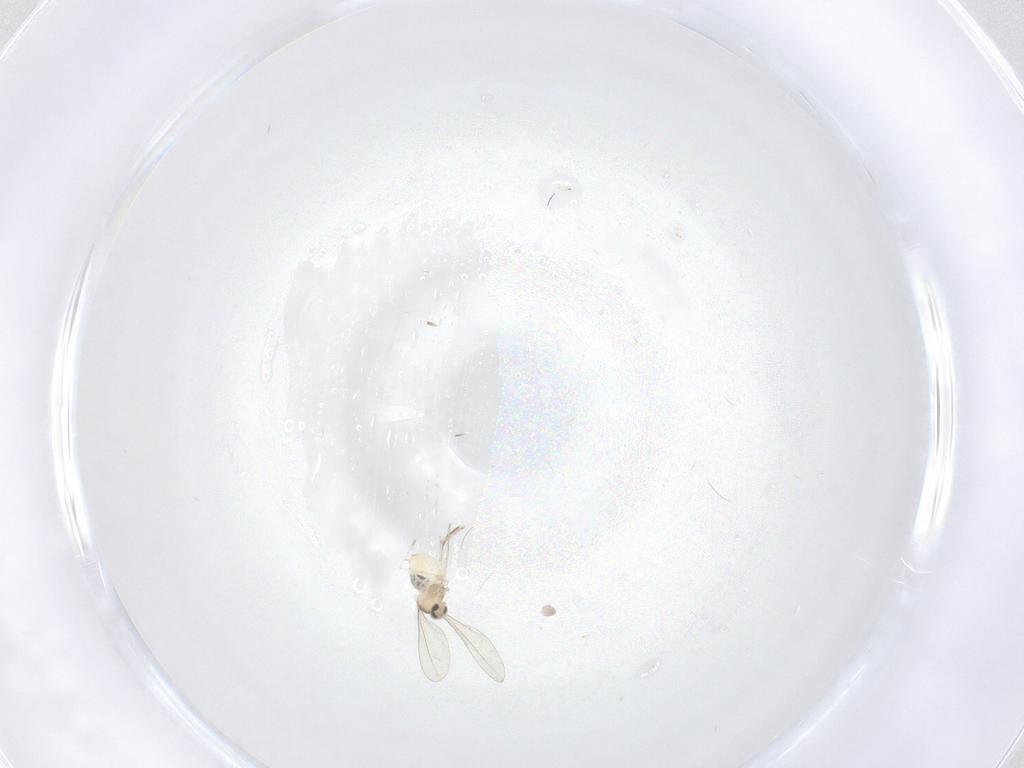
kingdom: Animalia
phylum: Arthropoda
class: Insecta
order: Diptera
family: Cecidomyiidae
